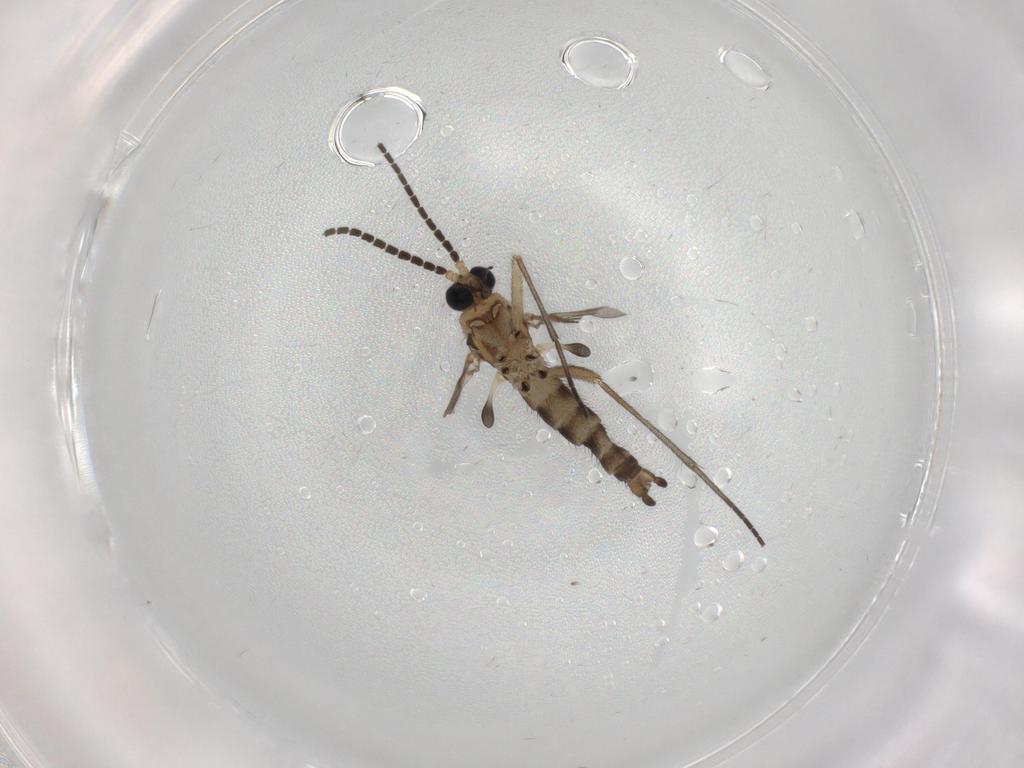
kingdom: Animalia
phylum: Arthropoda
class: Insecta
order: Diptera
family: Sciaridae
